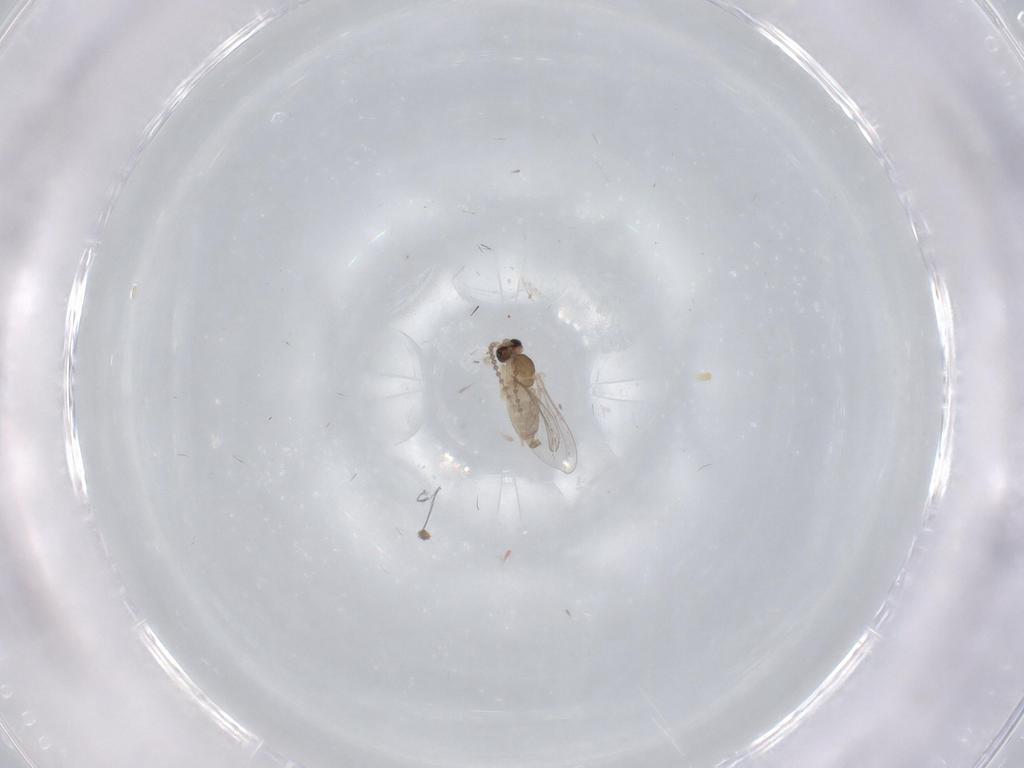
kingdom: Animalia
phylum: Arthropoda
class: Insecta
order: Diptera
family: Cecidomyiidae
